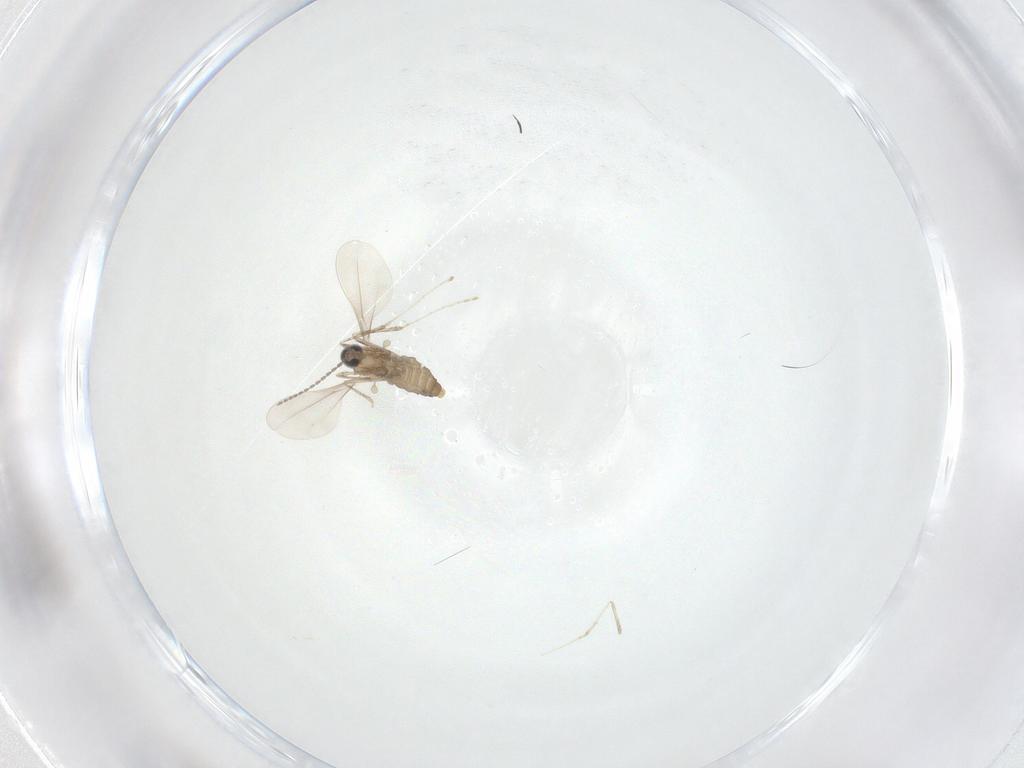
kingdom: Animalia
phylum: Arthropoda
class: Insecta
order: Diptera
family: Cecidomyiidae
